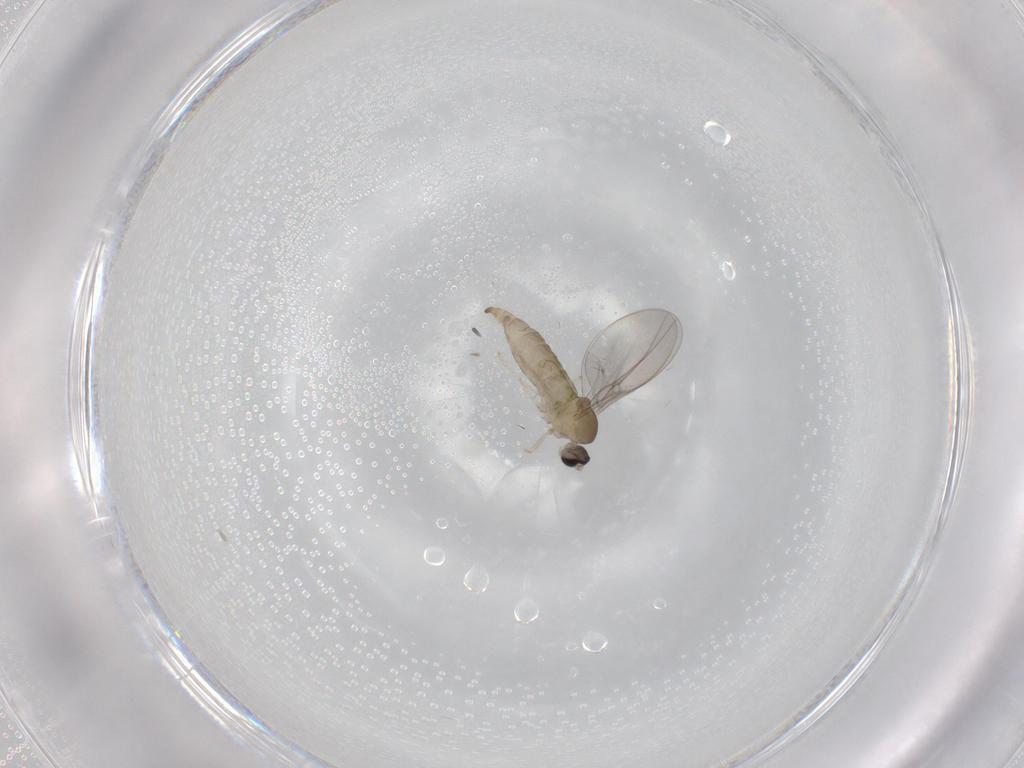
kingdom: Animalia
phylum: Arthropoda
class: Insecta
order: Diptera
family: Cecidomyiidae
